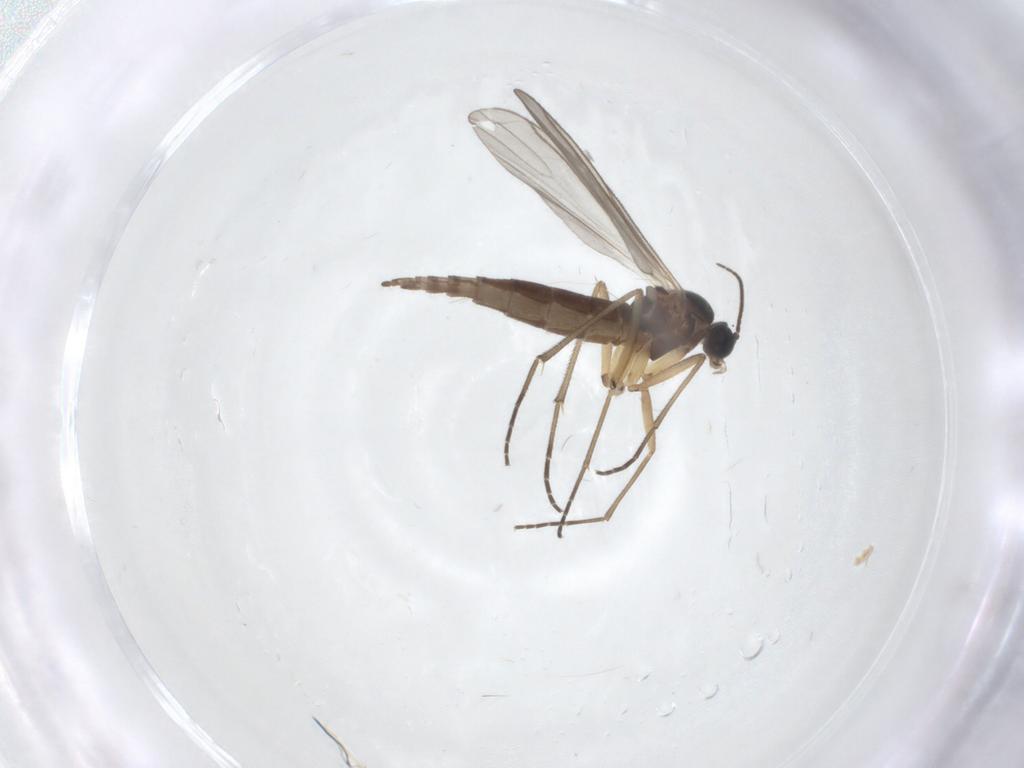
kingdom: Animalia
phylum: Arthropoda
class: Insecta
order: Diptera
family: Sciaridae
